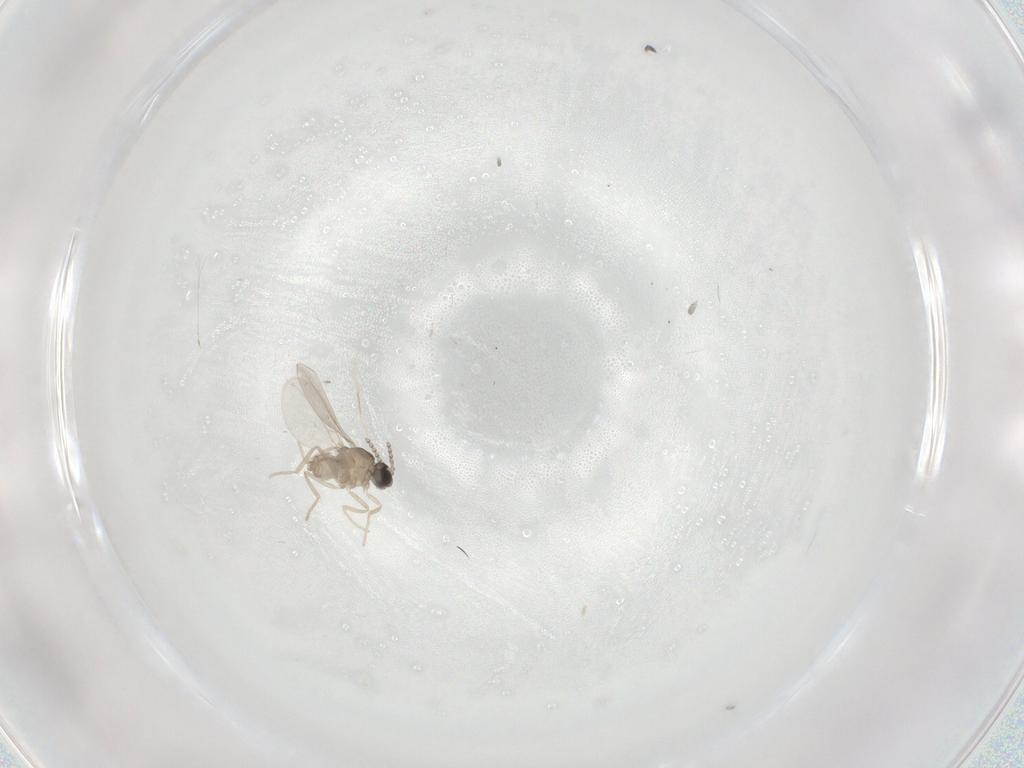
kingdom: Animalia
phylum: Arthropoda
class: Insecta
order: Diptera
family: Cecidomyiidae
